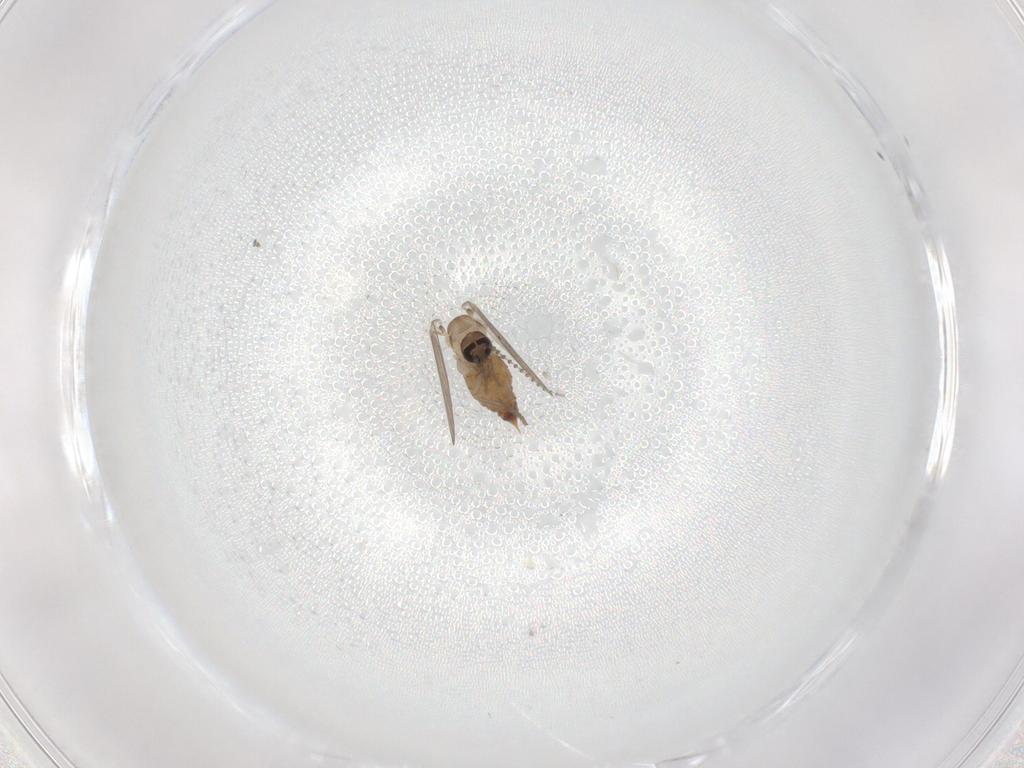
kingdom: Animalia
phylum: Arthropoda
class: Insecta
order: Diptera
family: Psychodidae
